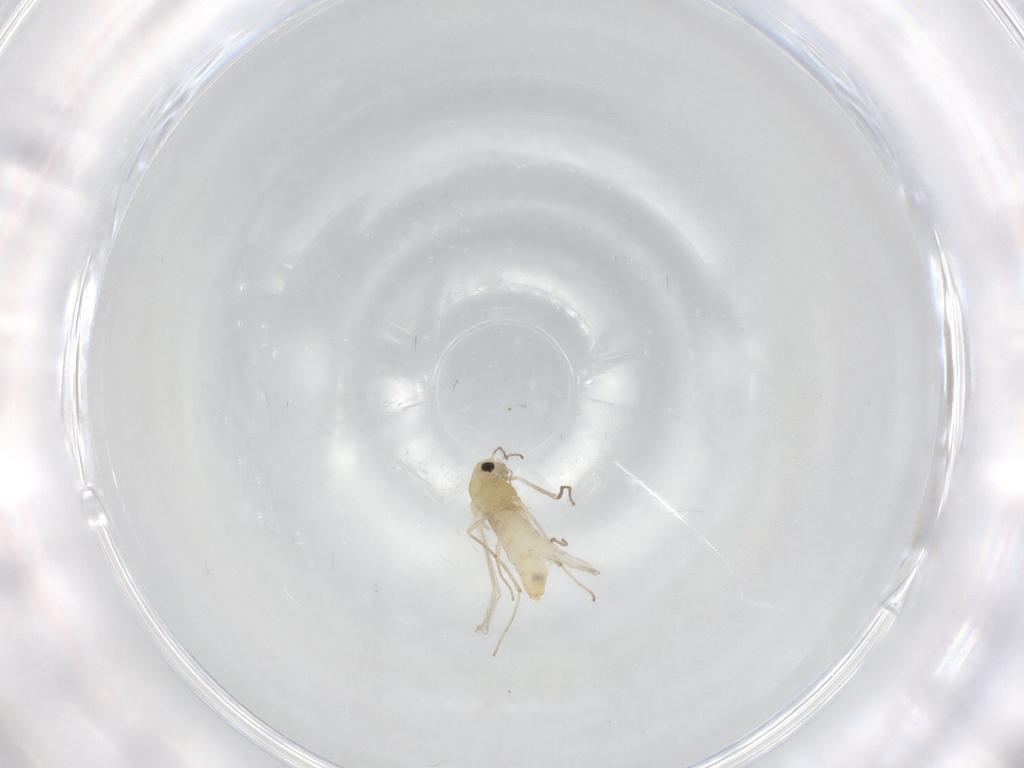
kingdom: Animalia
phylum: Arthropoda
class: Insecta
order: Diptera
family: Chironomidae
